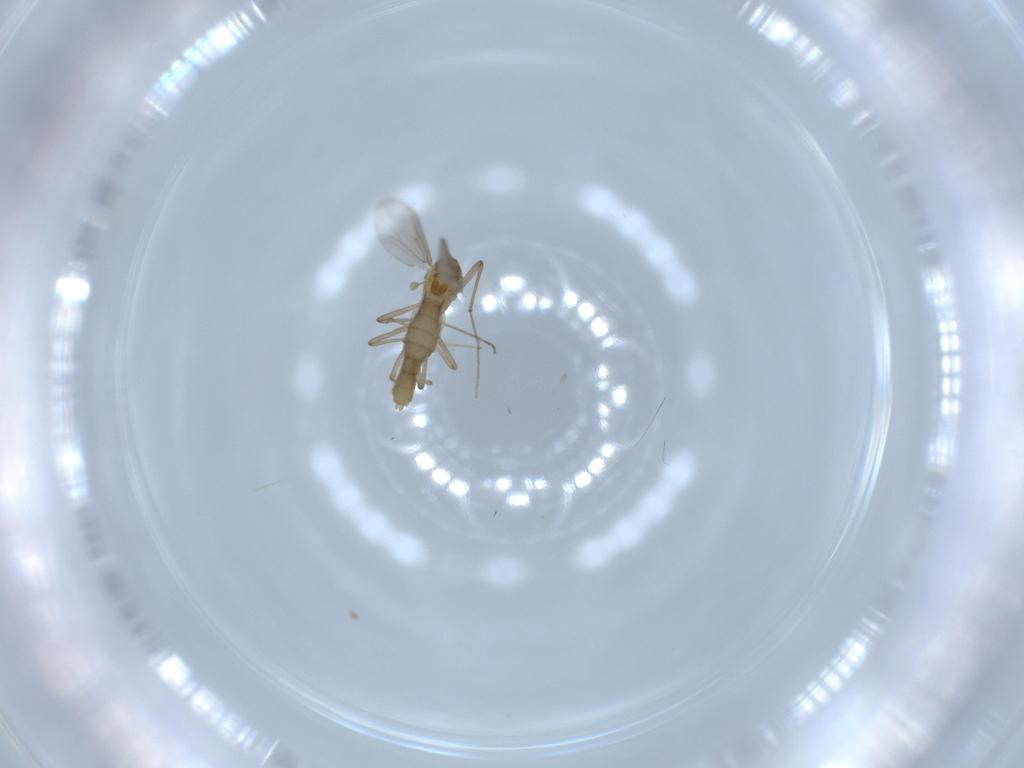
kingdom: Animalia
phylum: Arthropoda
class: Insecta
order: Diptera
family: Chironomidae
